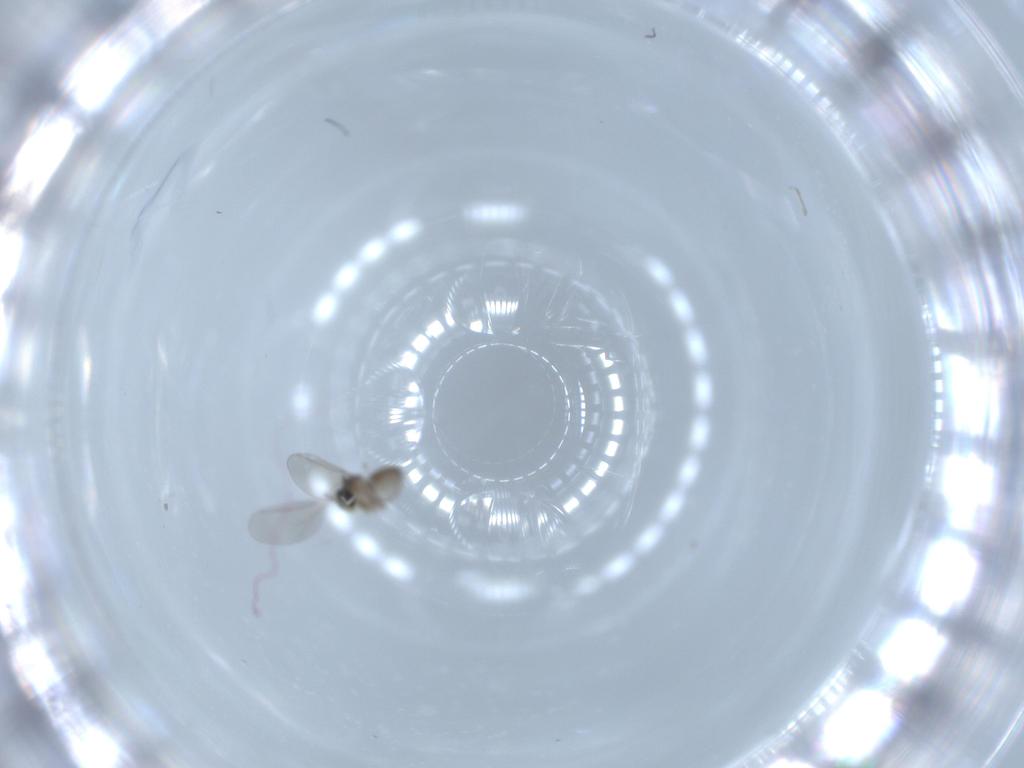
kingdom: Animalia
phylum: Arthropoda
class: Insecta
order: Diptera
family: Cecidomyiidae
